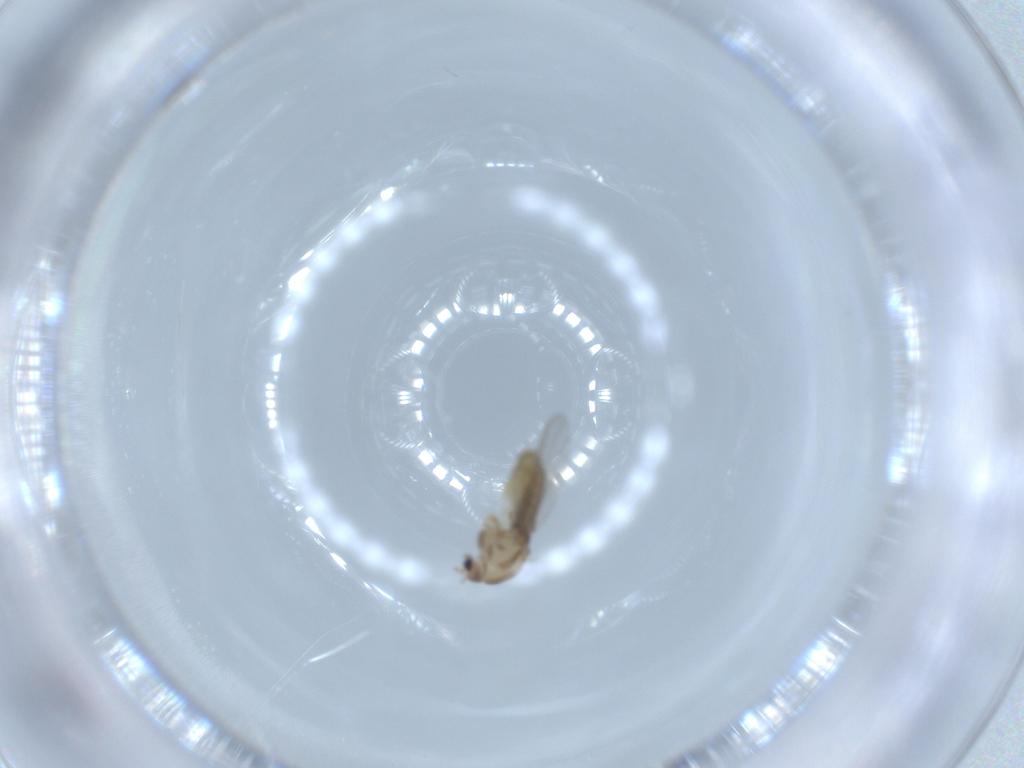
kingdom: Animalia
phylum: Arthropoda
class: Insecta
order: Diptera
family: Chironomidae
